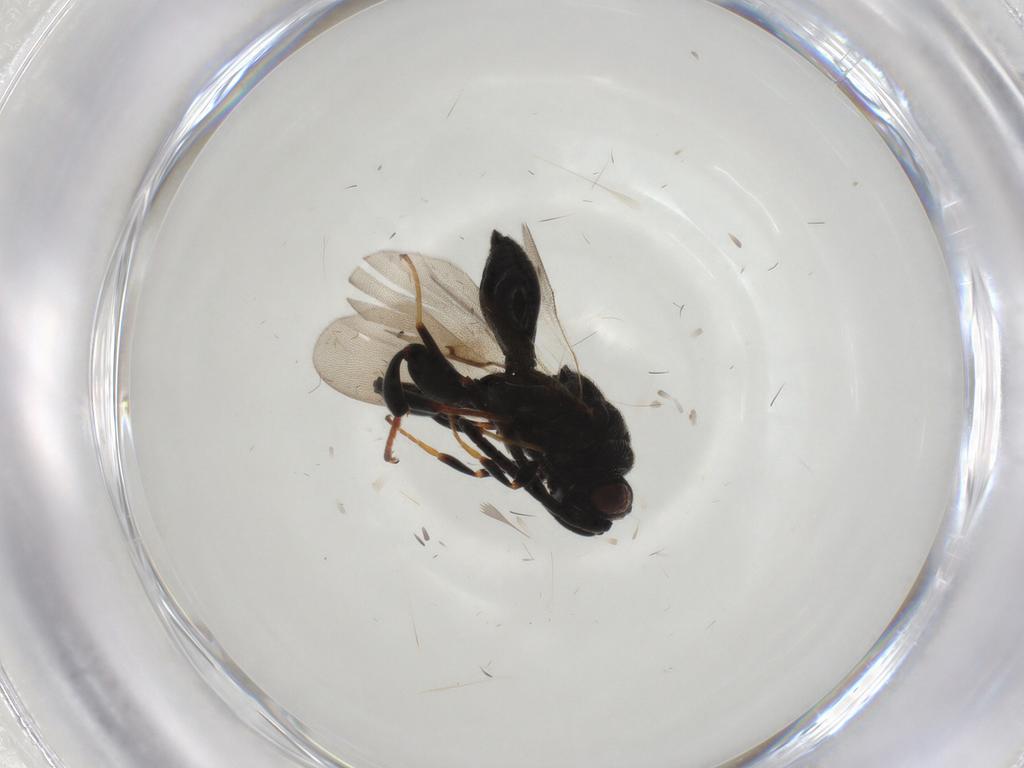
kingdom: Animalia
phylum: Arthropoda
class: Insecta
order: Hymenoptera
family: Chalcididae
